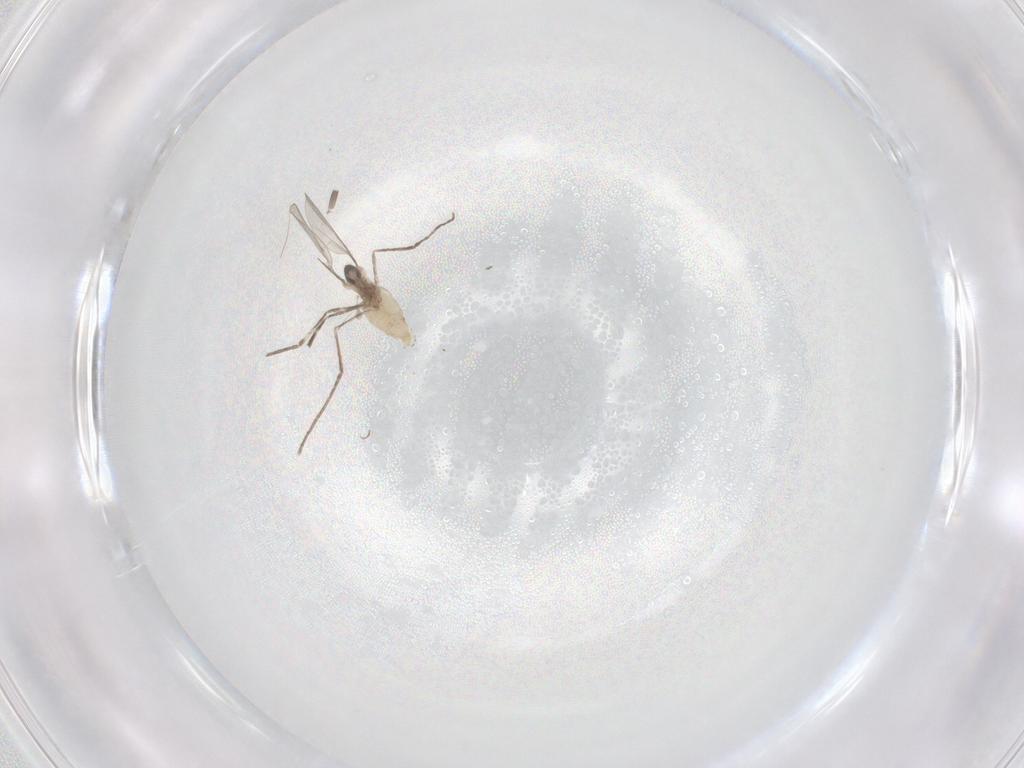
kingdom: Animalia
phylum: Arthropoda
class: Insecta
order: Diptera
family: Cecidomyiidae
